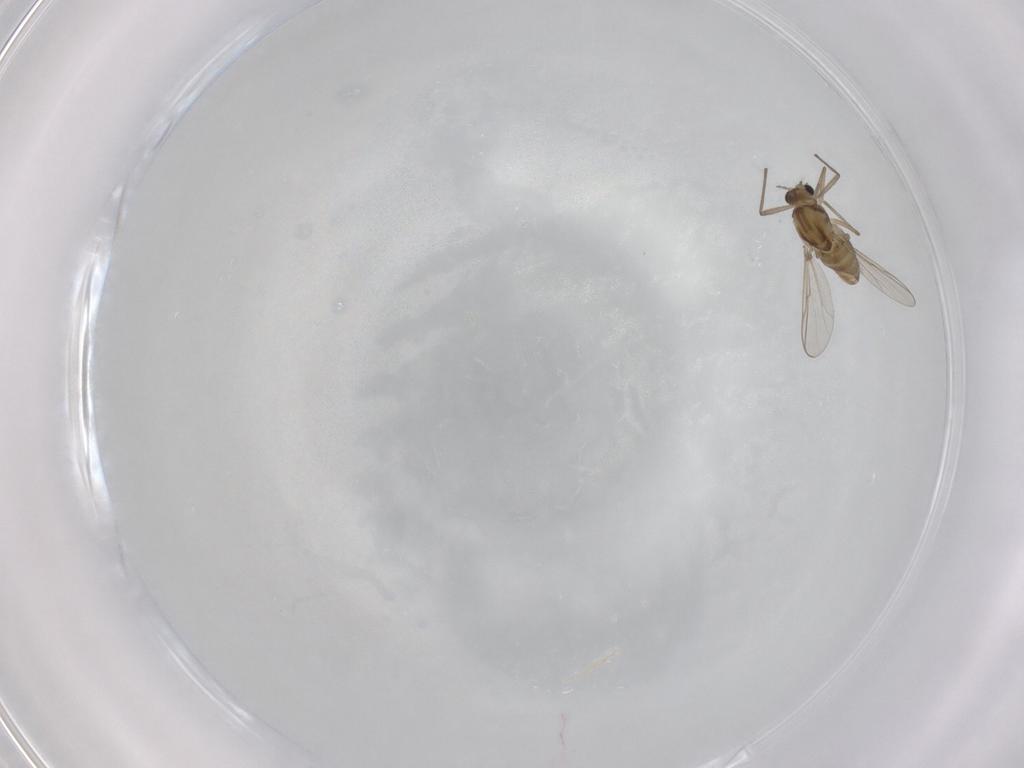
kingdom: Animalia
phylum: Arthropoda
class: Insecta
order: Diptera
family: Chironomidae
